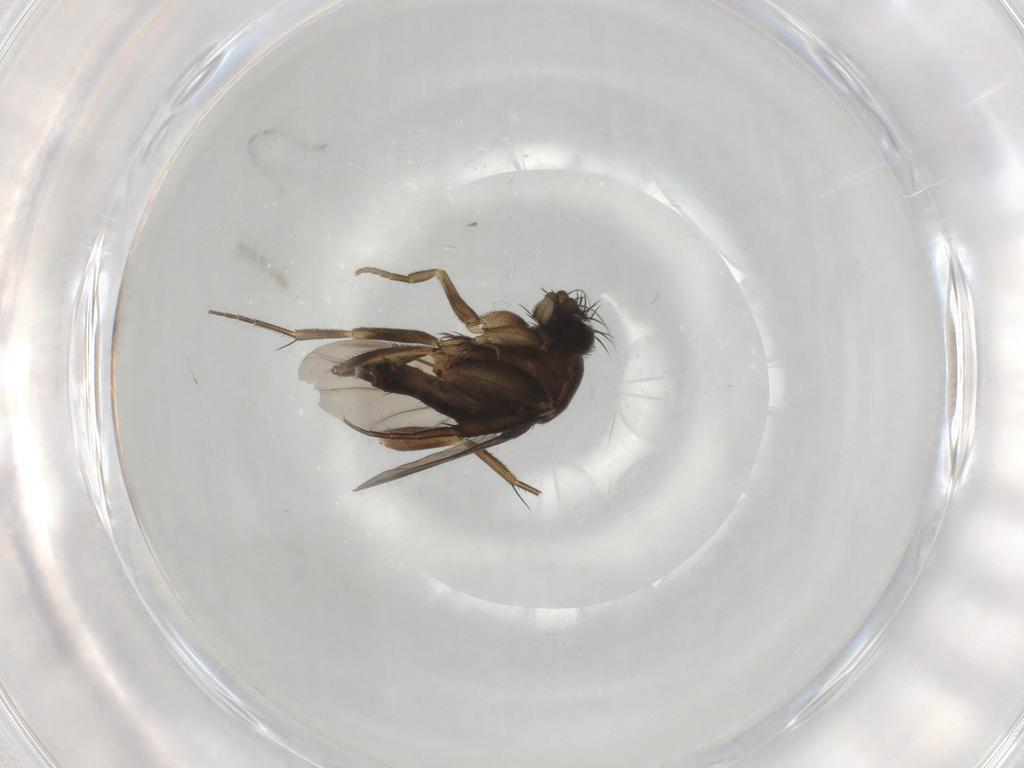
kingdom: Animalia
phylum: Arthropoda
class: Insecta
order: Diptera
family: Phoridae
